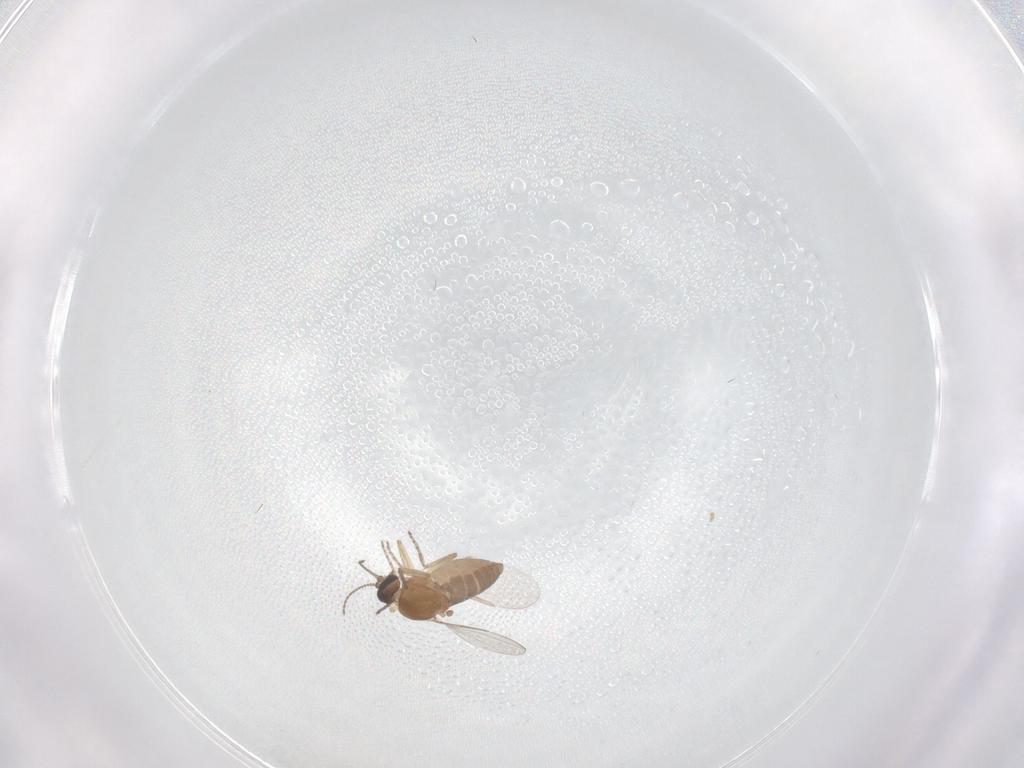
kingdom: Animalia
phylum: Arthropoda
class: Insecta
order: Diptera
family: Ceratopogonidae
